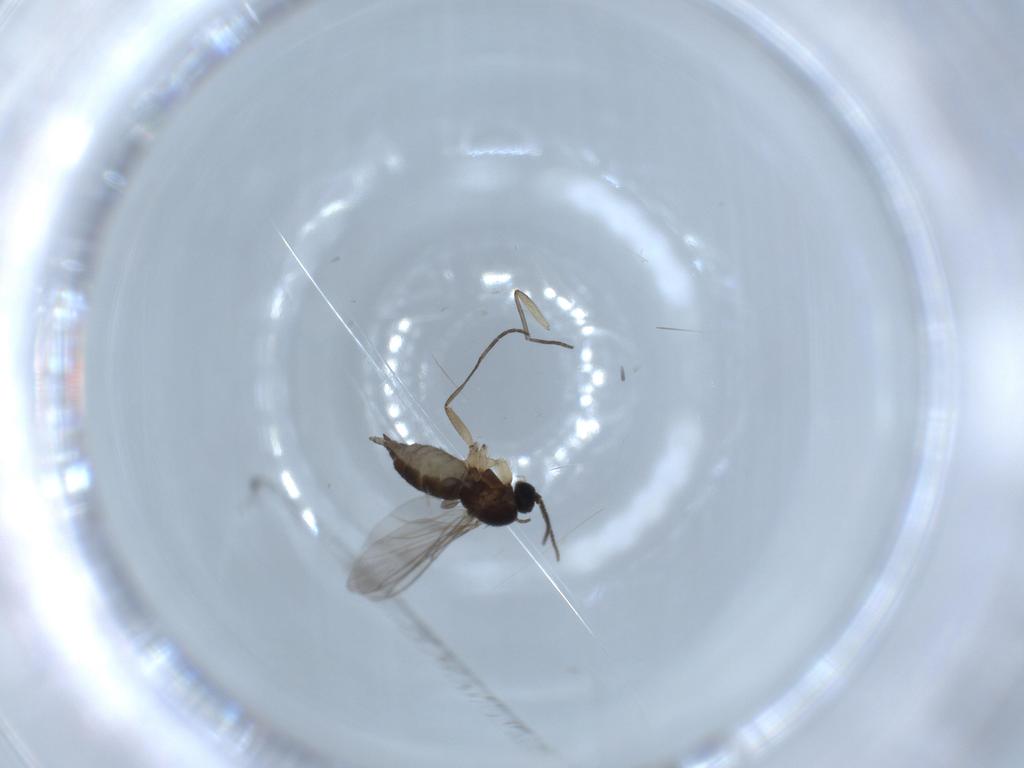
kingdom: Animalia
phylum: Arthropoda
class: Insecta
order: Diptera
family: Sciaridae
